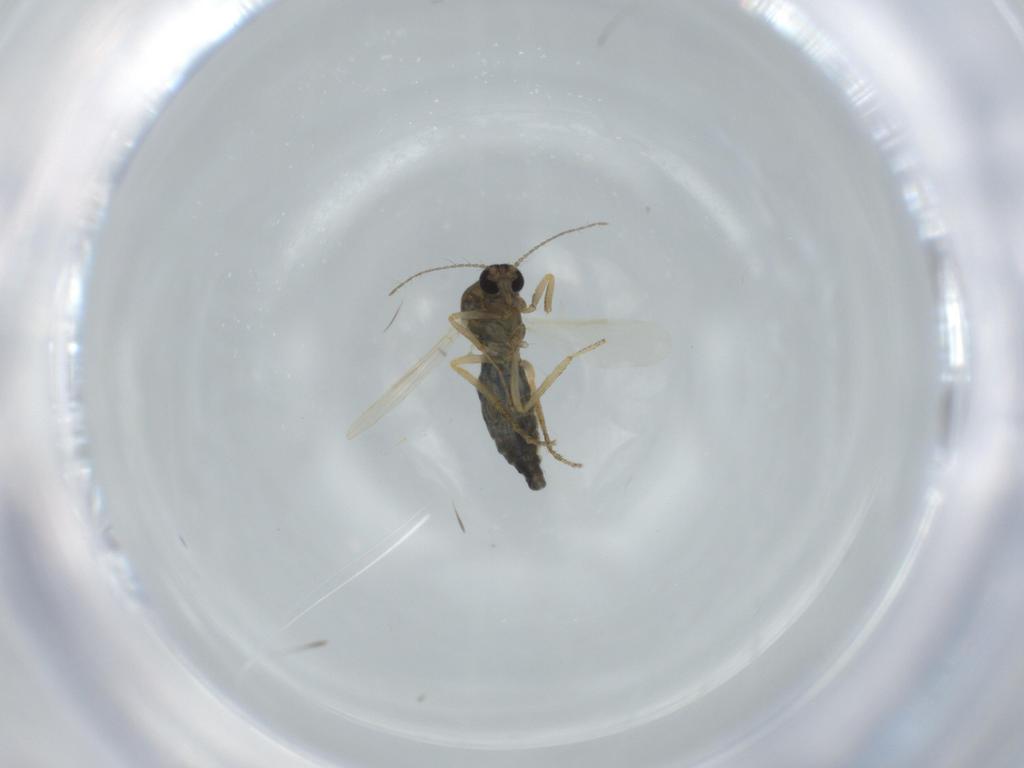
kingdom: Animalia
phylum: Arthropoda
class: Insecta
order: Diptera
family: Ceratopogonidae
